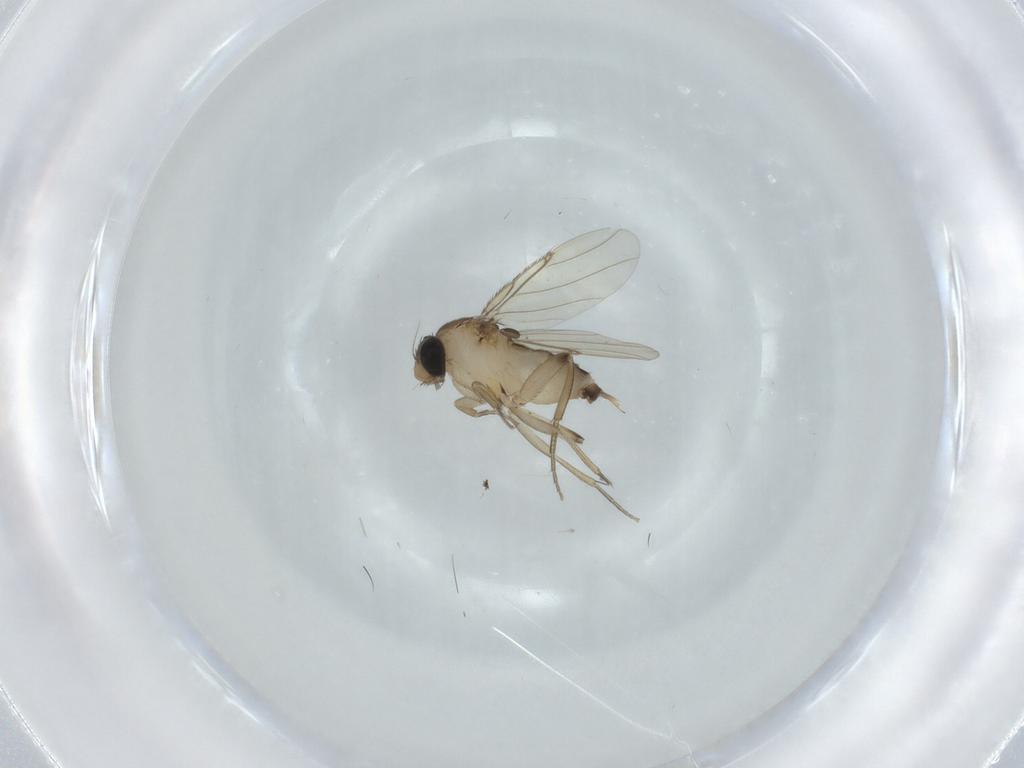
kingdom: Animalia
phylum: Arthropoda
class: Insecta
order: Diptera
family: Phoridae
